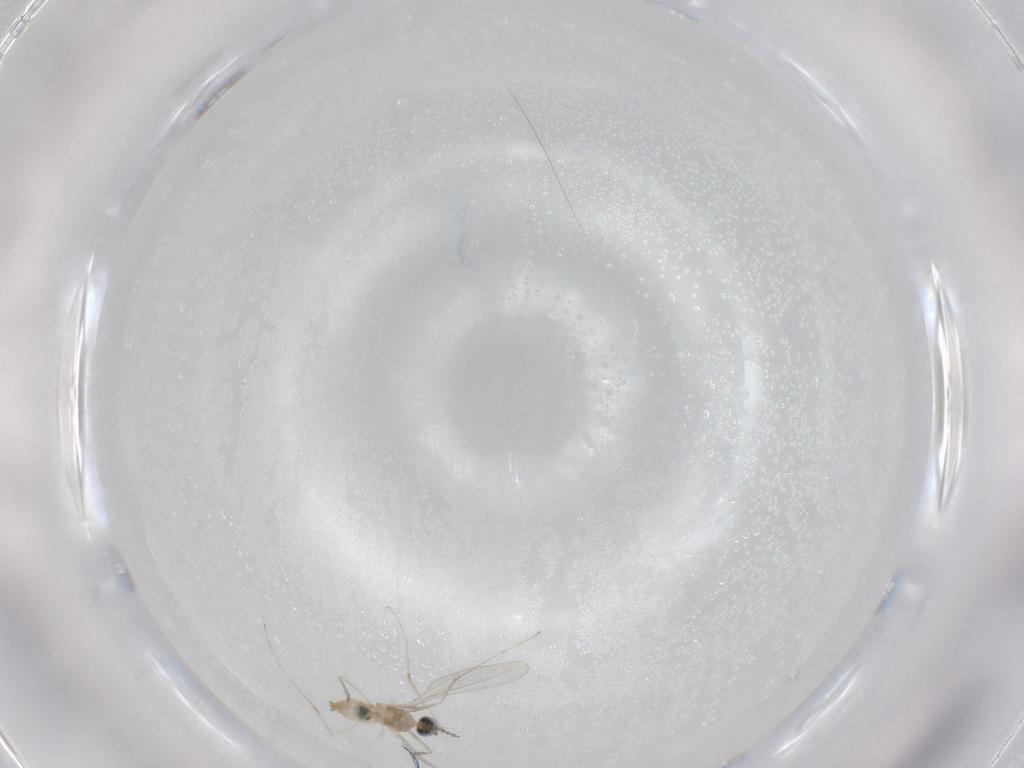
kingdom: Animalia
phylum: Arthropoda
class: Insecta
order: Diptera
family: Cecidomyiidae
